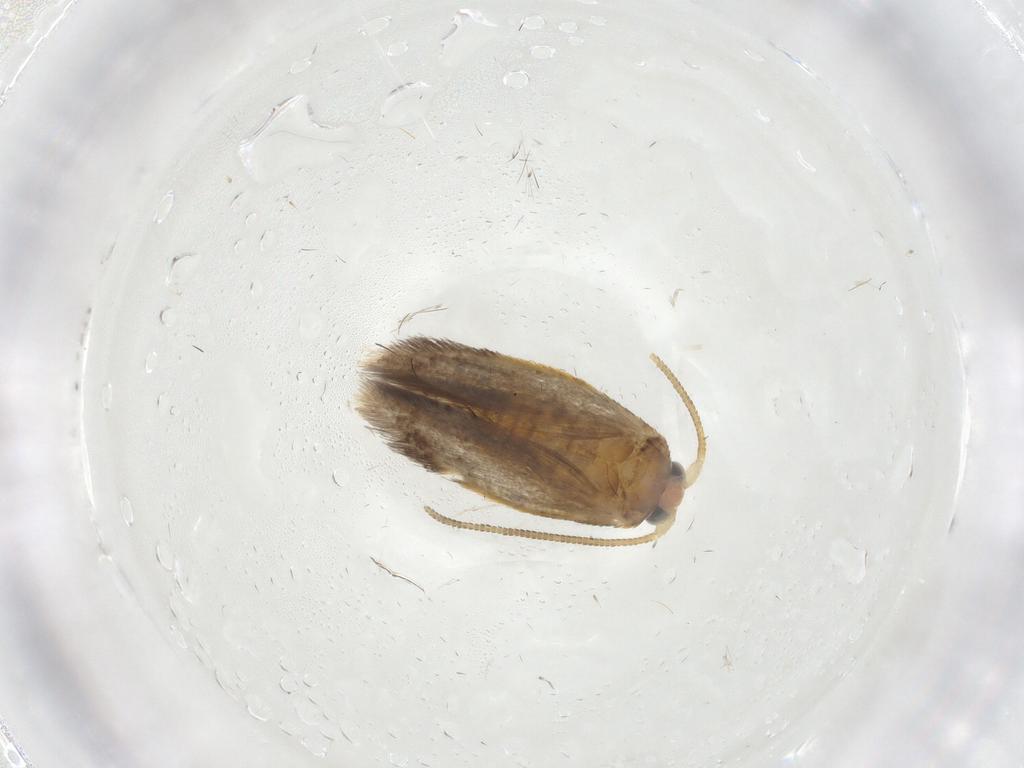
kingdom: Animalia
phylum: Arthropoda
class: Insecta
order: Lepidoptera
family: Nepticulidae
